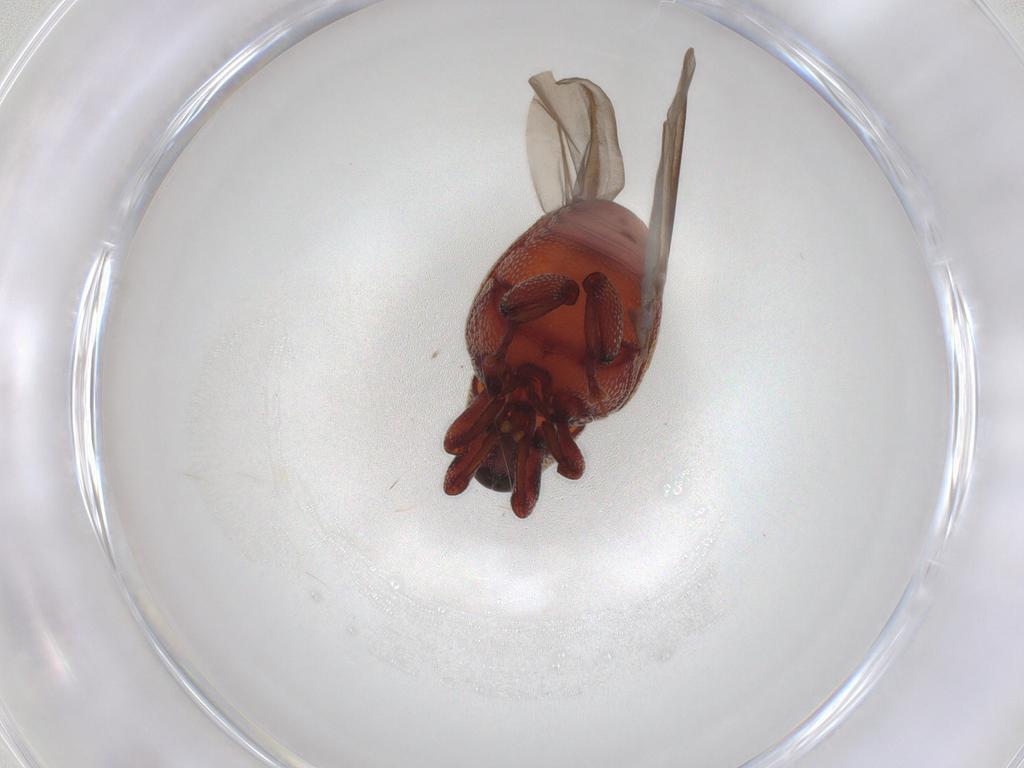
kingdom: Animalia
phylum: Arthropoda
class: Insecta
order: Coleoptera
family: Curculionidae
